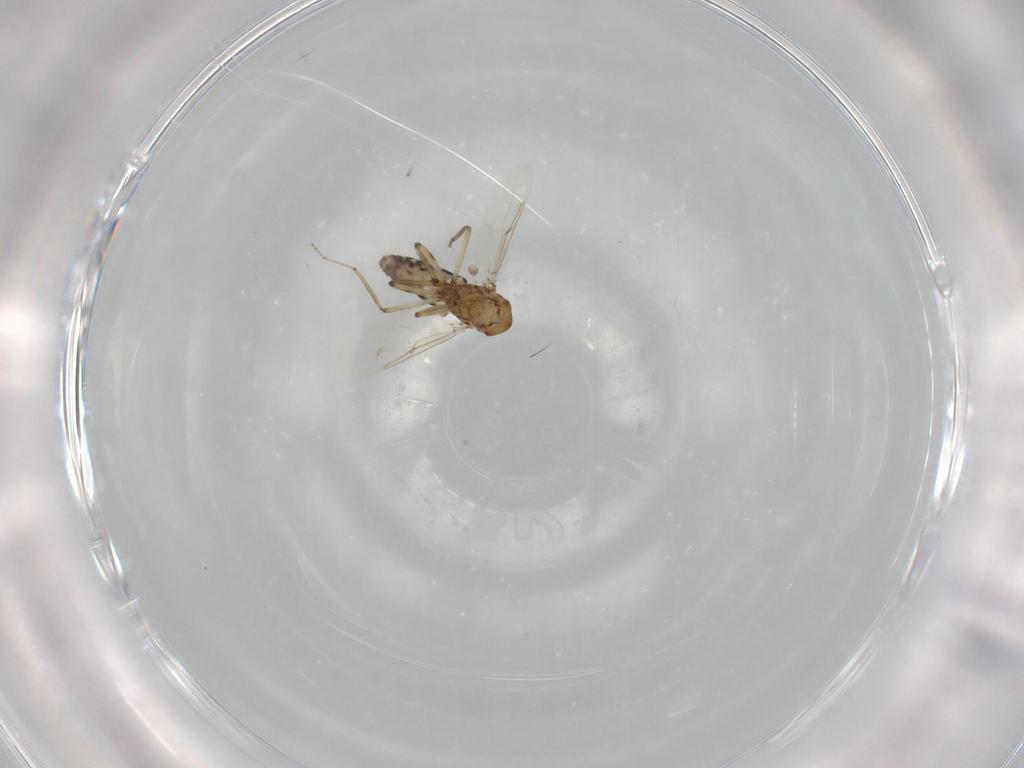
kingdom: Animalia
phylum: Arthropoda
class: Insecta
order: Diptera
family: Ceratopogonidae
